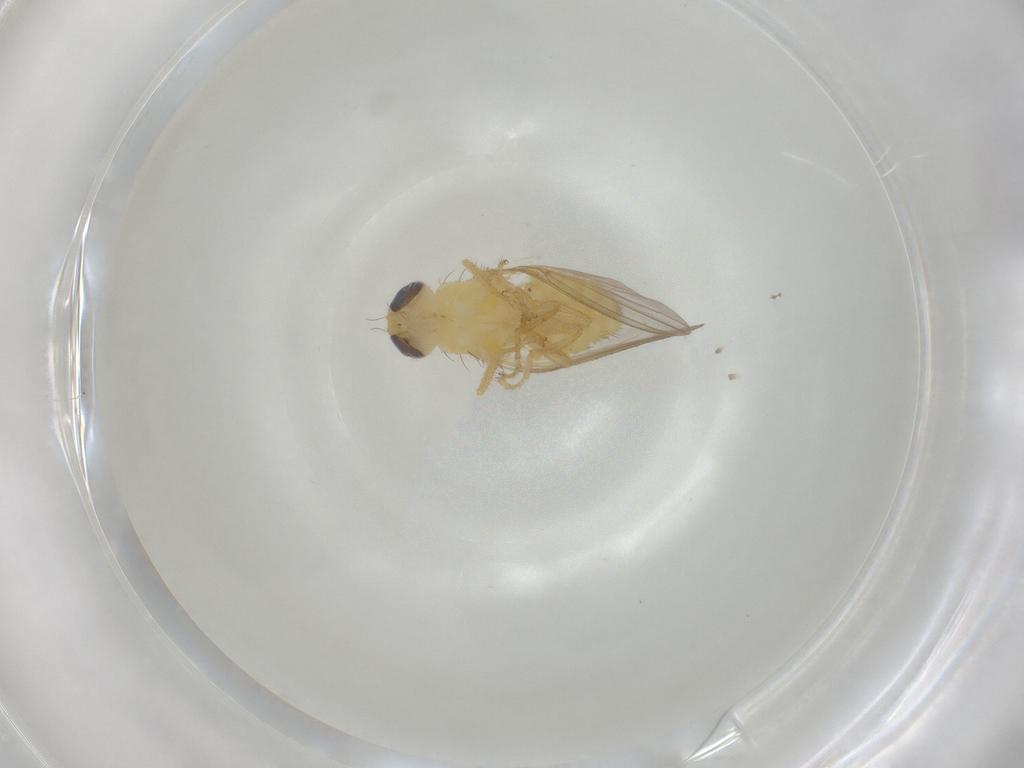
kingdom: Animalia
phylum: Arthropoda
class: Insecta
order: Diptera
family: Chyromyidae
